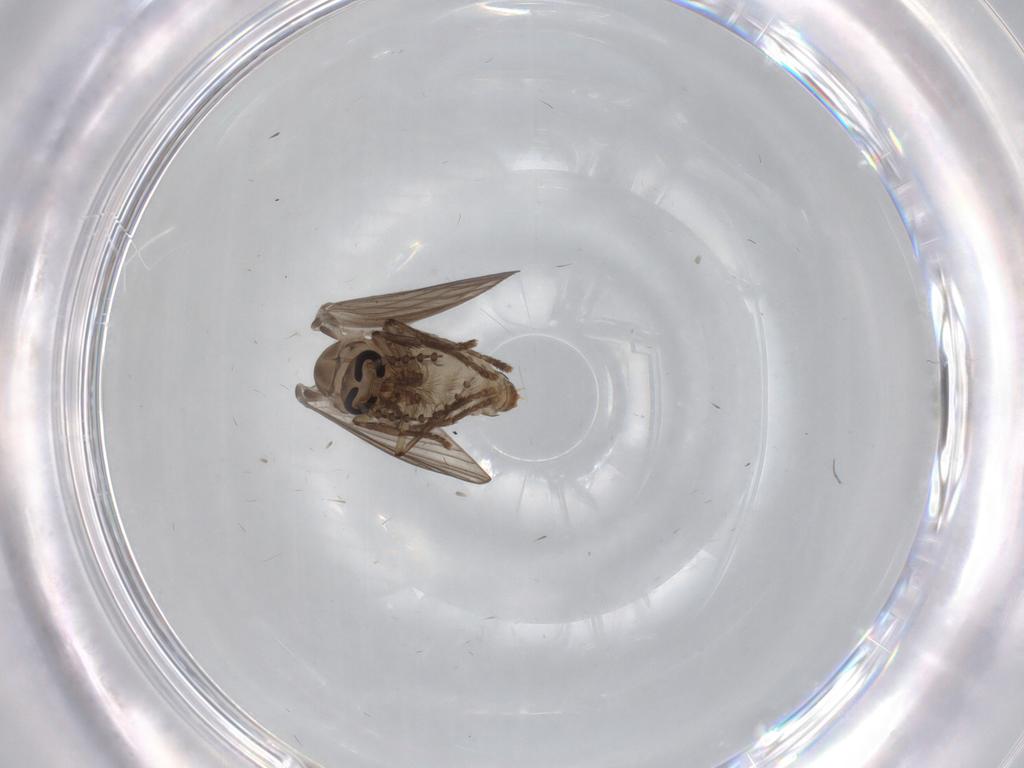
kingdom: Animalia
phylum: Arthropoda
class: Insecta
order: Diptera
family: Psychodidae
